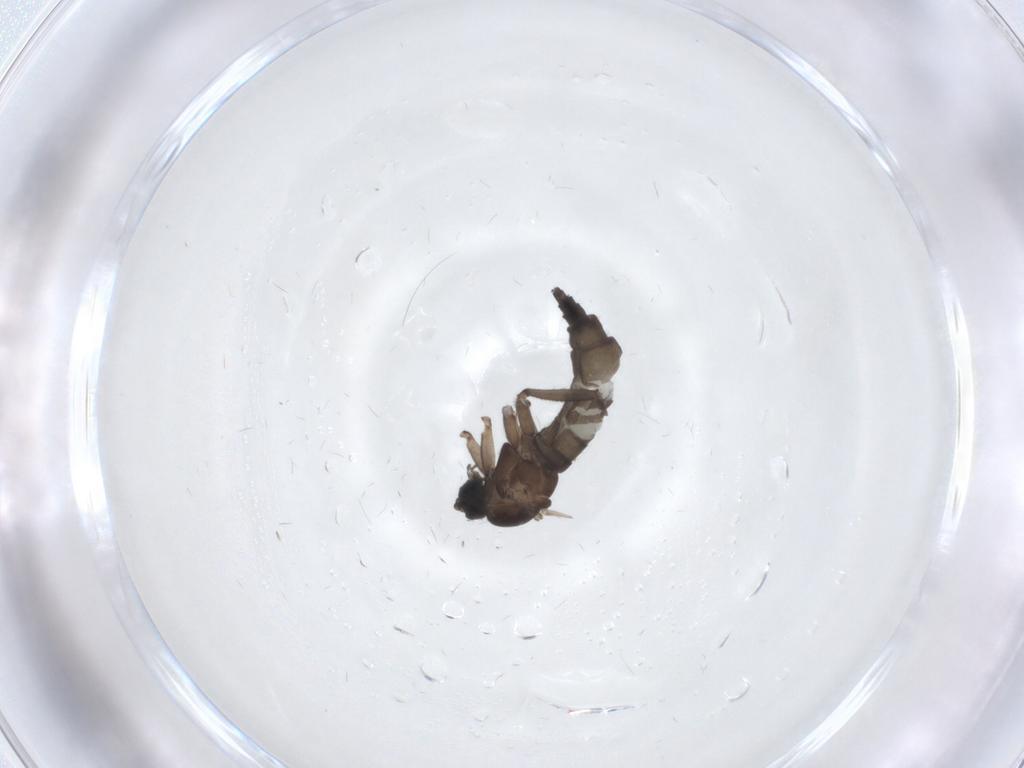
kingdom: Animalia
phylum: Arthropoda
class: Insecta
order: Diptera
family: Sciaridae
